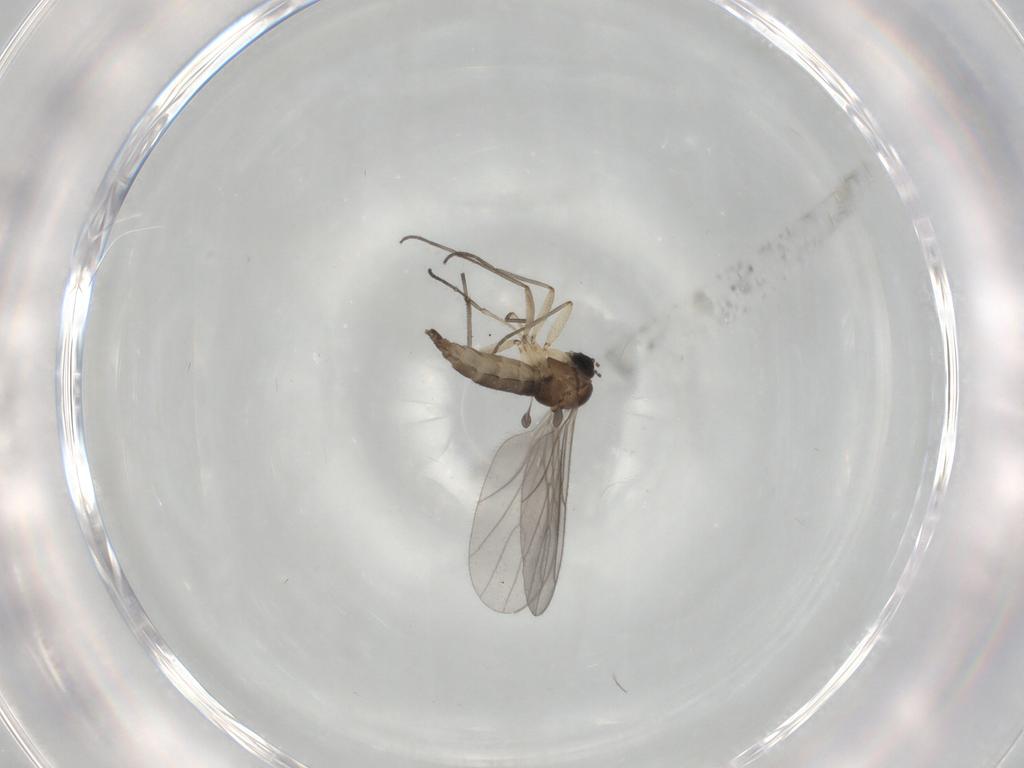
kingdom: Animalia
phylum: Arthropoda
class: Insecta
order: Diptera
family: Sciaridae
